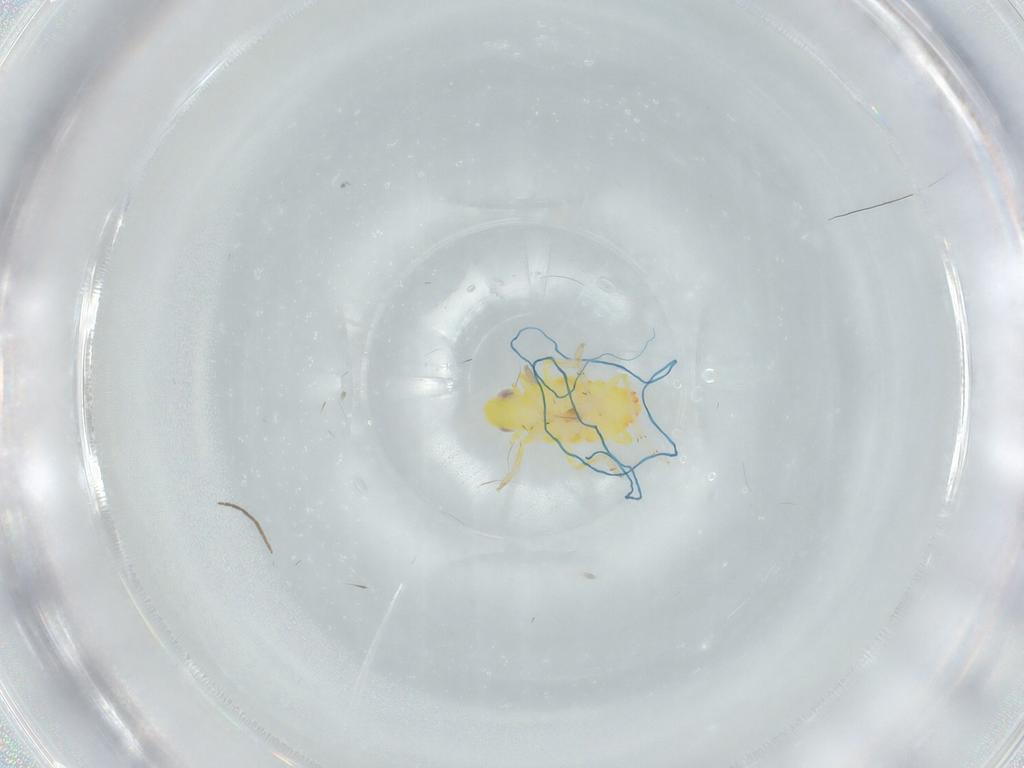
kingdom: Animalia
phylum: Arthropoda
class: Insecta
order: Hemiptera
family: Tropiduchidae
